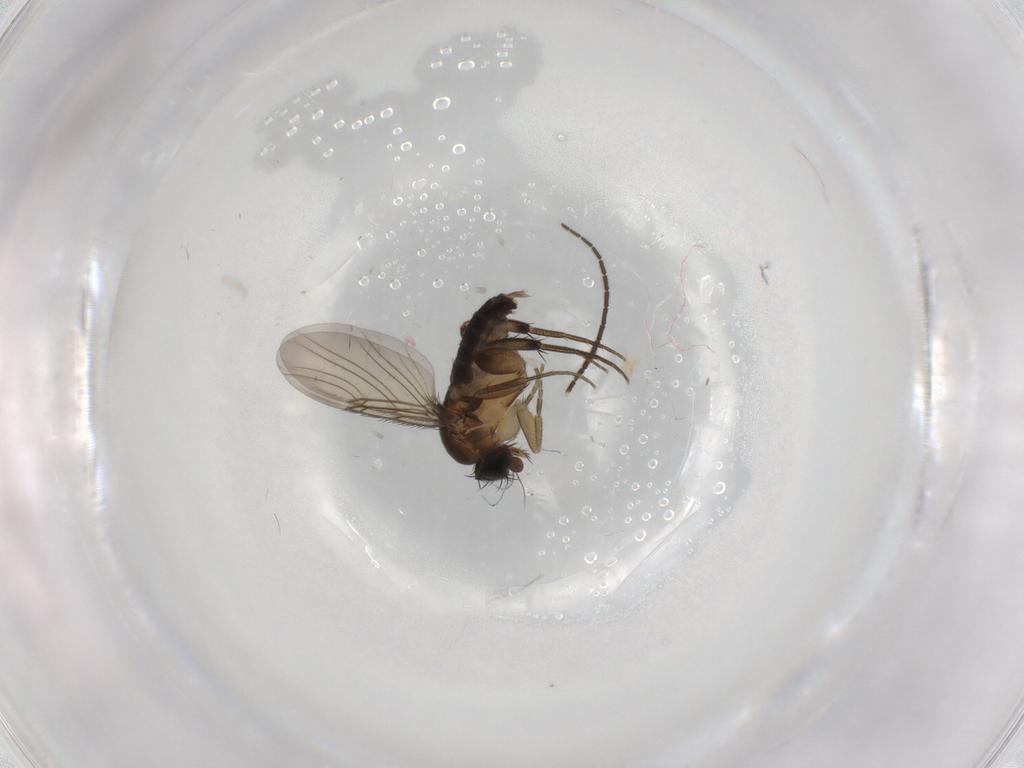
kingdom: Animalia
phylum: Arthropoda
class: Insecta
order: Diptera
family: Phoridae
